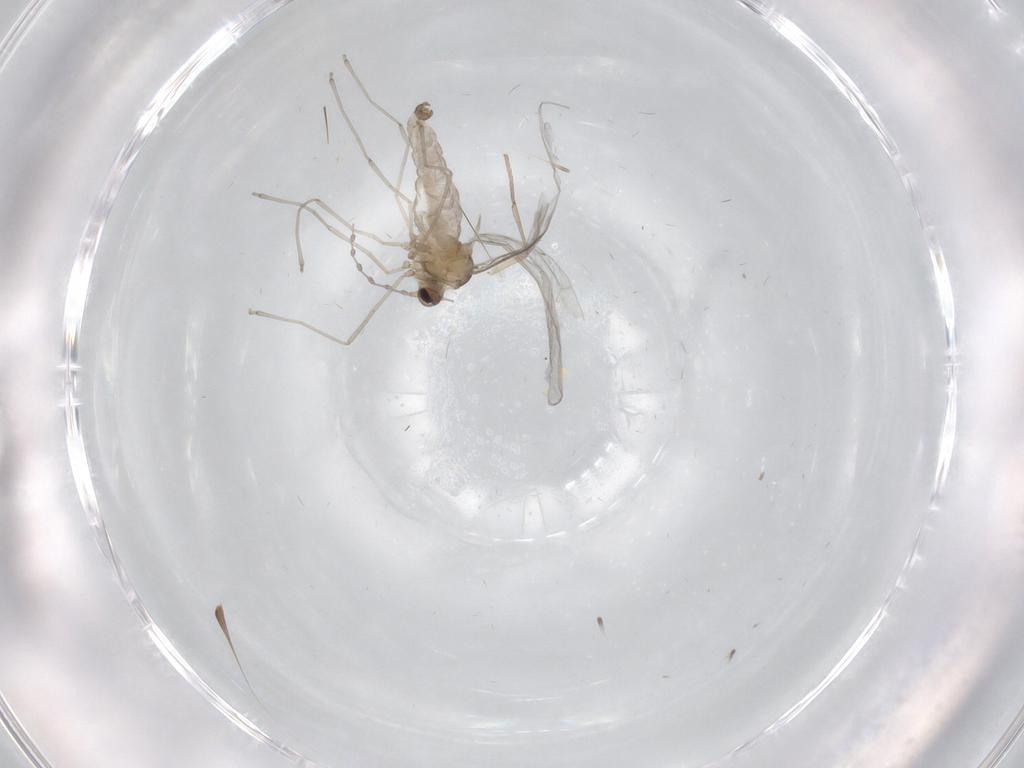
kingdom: Animalia
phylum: Arthropoda
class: Insecta
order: Diptera
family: Cecidomyiidae
